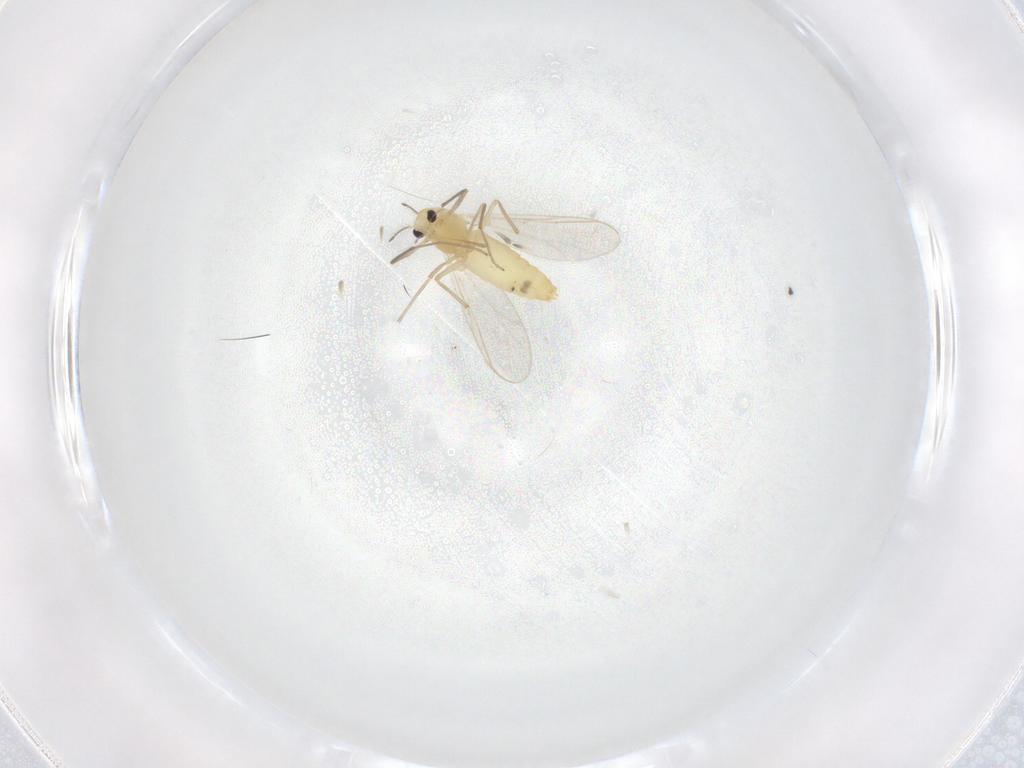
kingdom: Animalia
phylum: Arthropoda
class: Insecta
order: Diptera
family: Chironomidae
